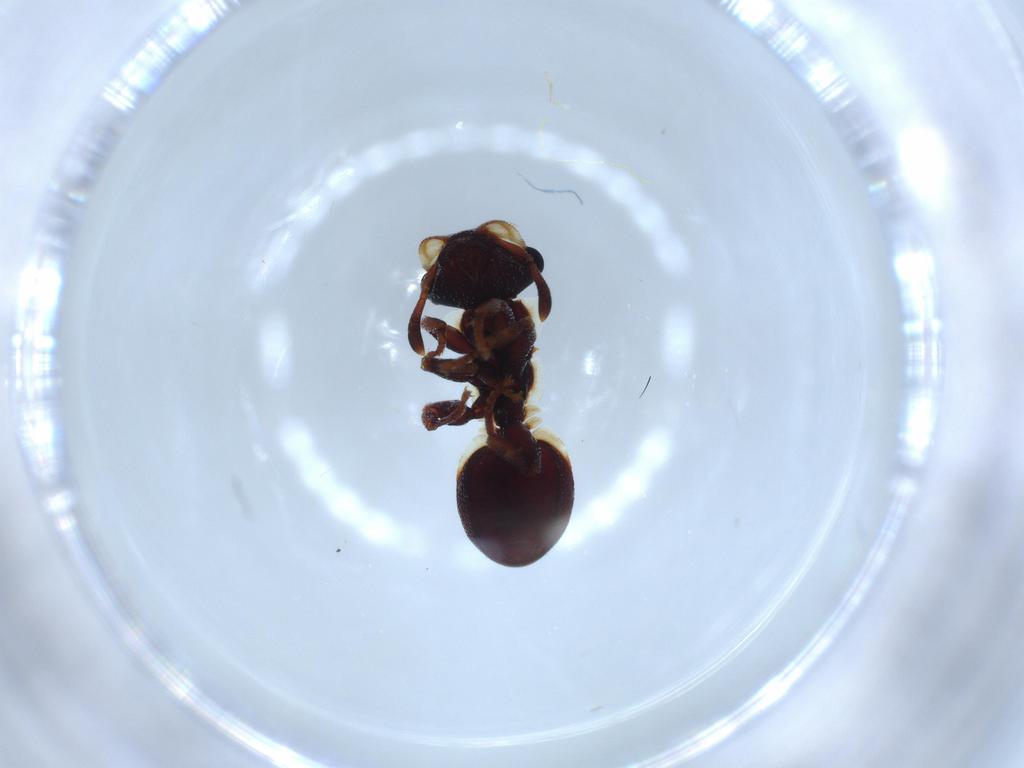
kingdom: Animalia
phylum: Arthropoda
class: Insecta
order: Hymenoptera
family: Formicidae
